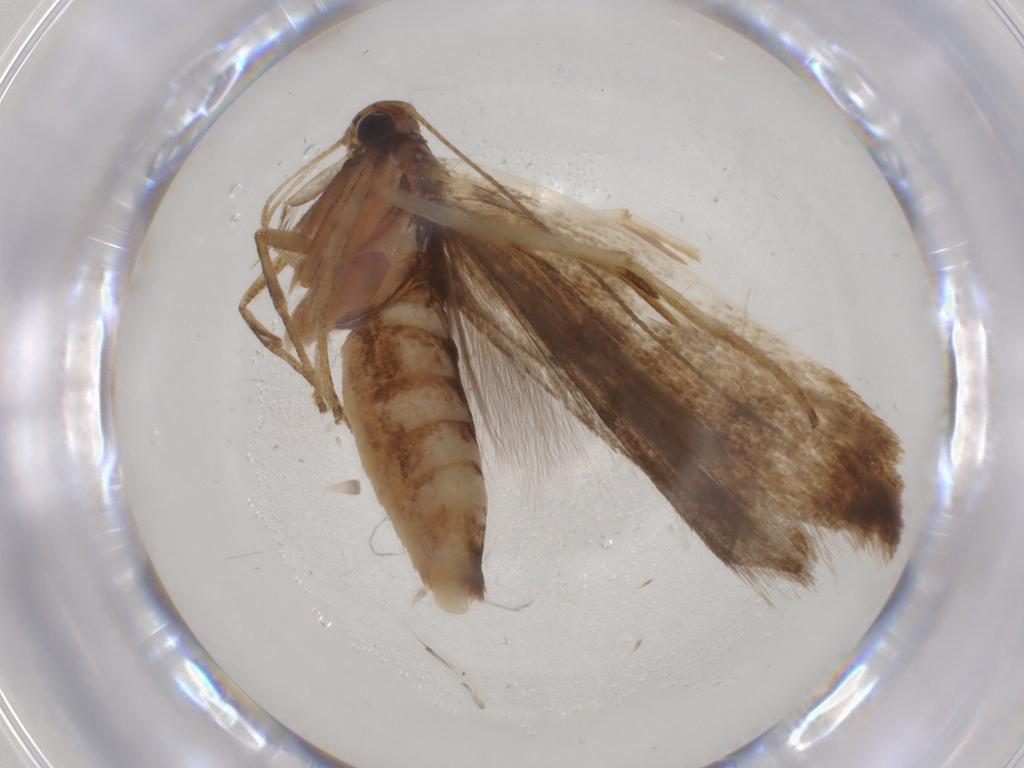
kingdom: Animalia
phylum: Arthropoda
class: Insecta
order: Lepidoptera
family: Gelechiidae
